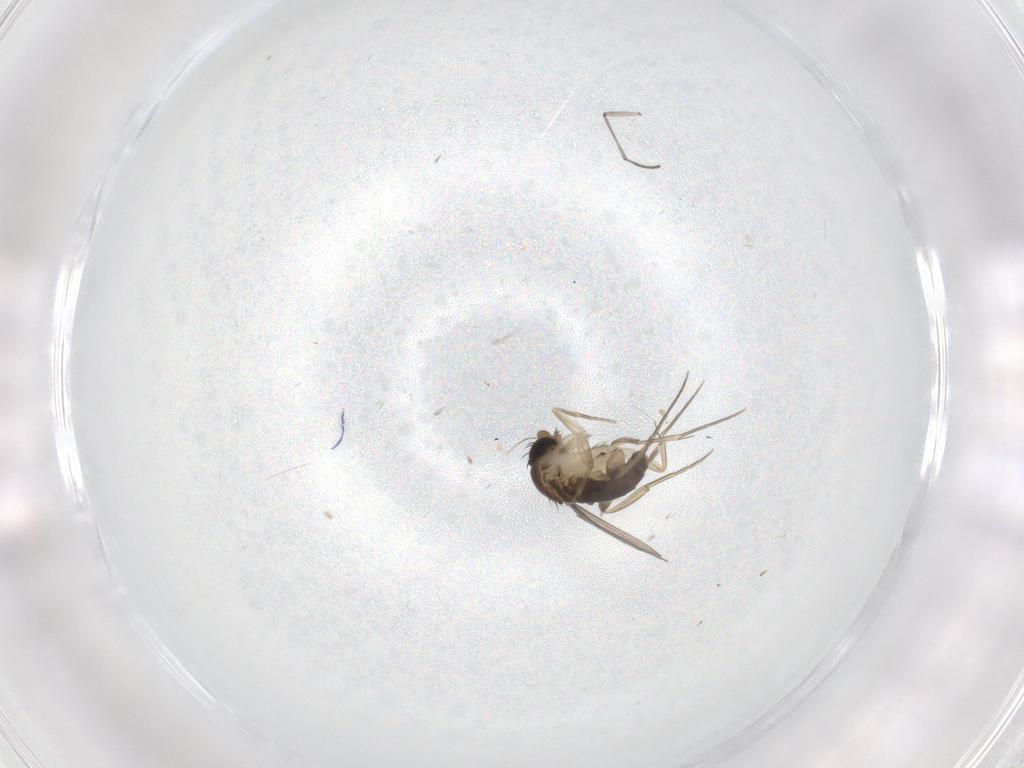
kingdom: Animalia
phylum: Arthropoda
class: Insecta
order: Diptera
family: Phoridae
